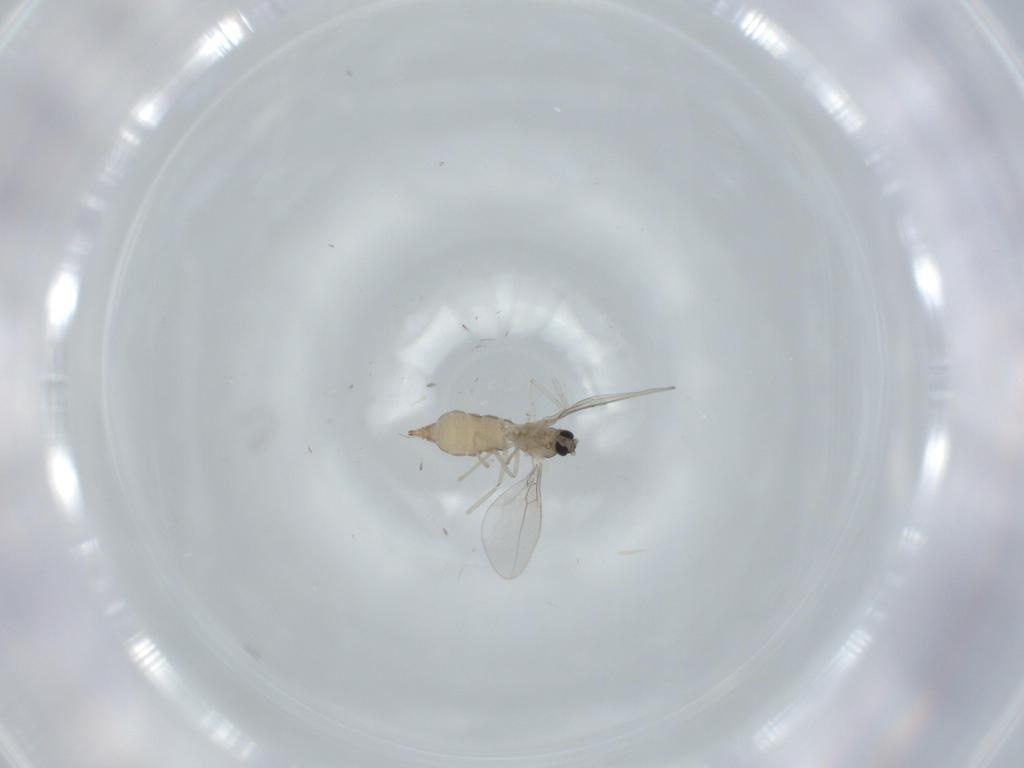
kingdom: Animalia
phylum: Arthropoda
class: Insecta
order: Diptera
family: Cecidomyiidae
